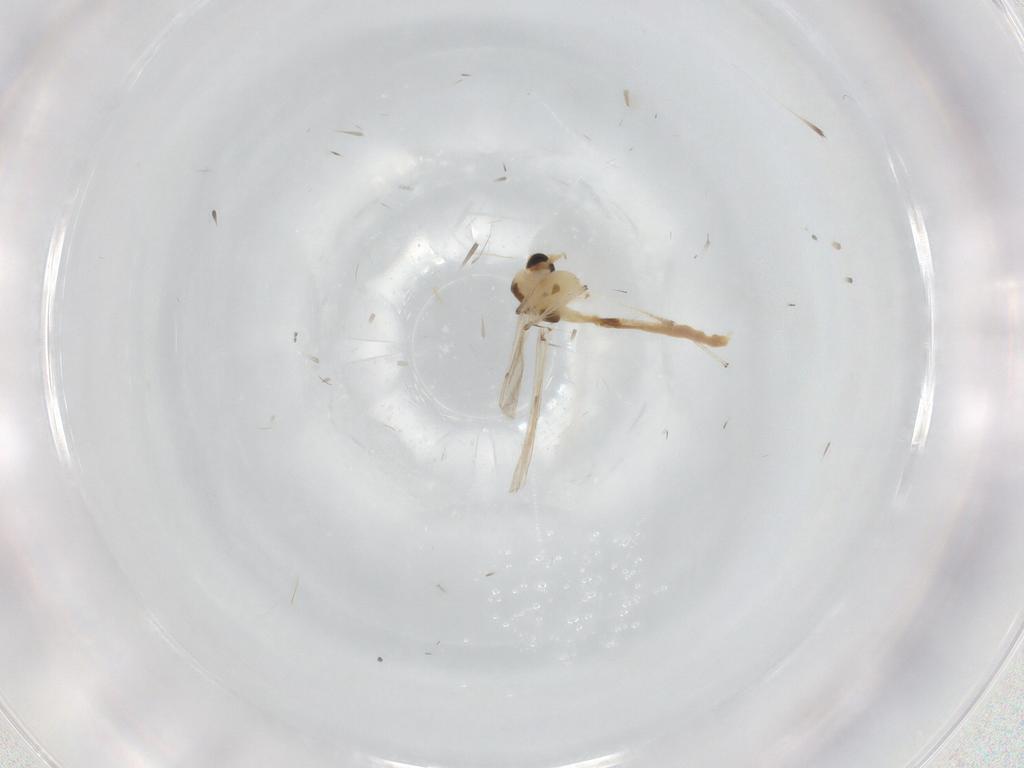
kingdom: Animalia
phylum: Arthropoda
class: Insecta
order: Diptera
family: Chironomidae
